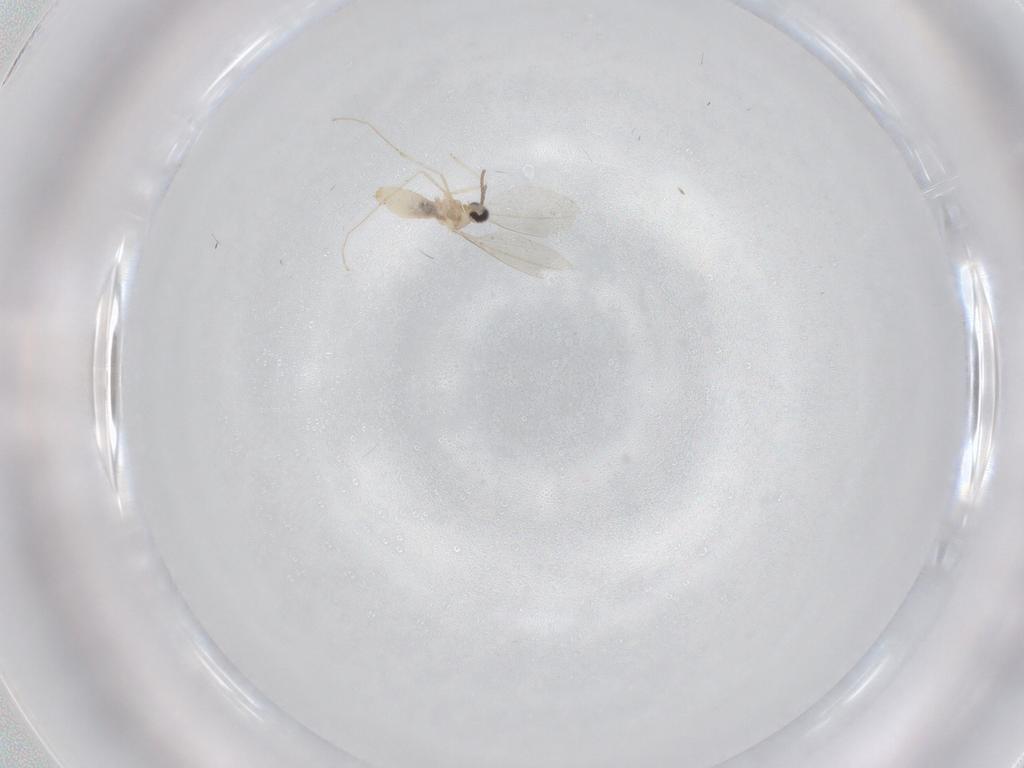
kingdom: Animalia
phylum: Arthropoda
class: Insecta
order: Diptera
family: Cecidomyiidae
